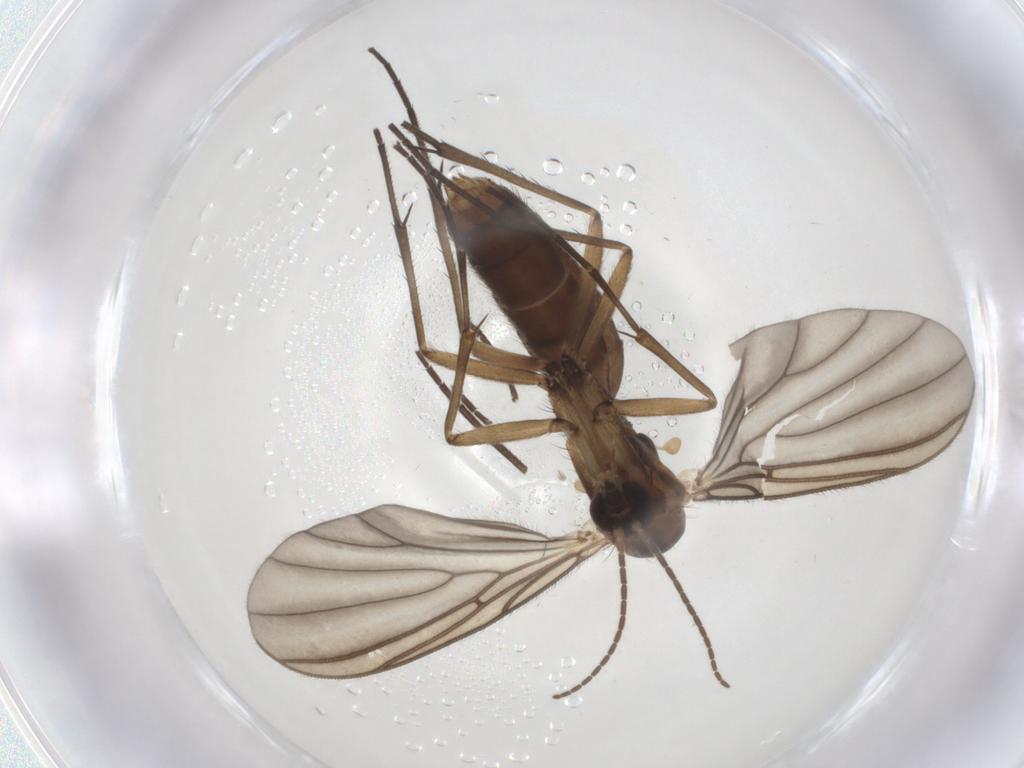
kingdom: Animalia
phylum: Arthropoda
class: Insecta
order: Diptera
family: Mycetophilidae
